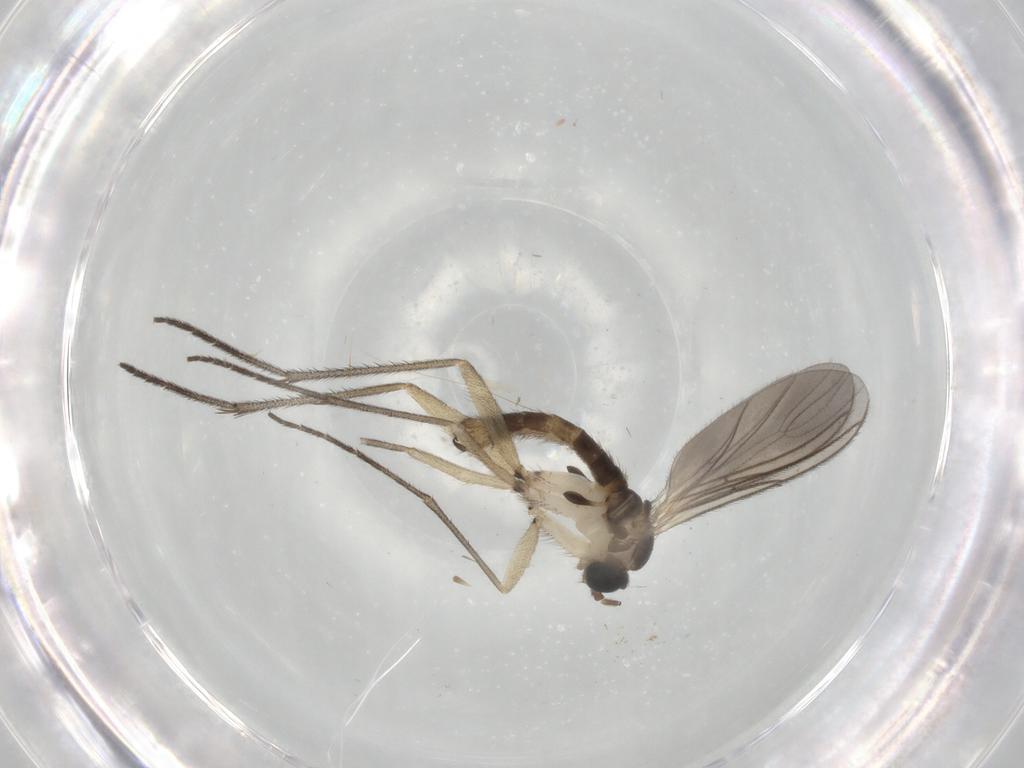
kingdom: Animalia
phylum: Arthropoda
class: Insecta
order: Diptera
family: Sciaridae
